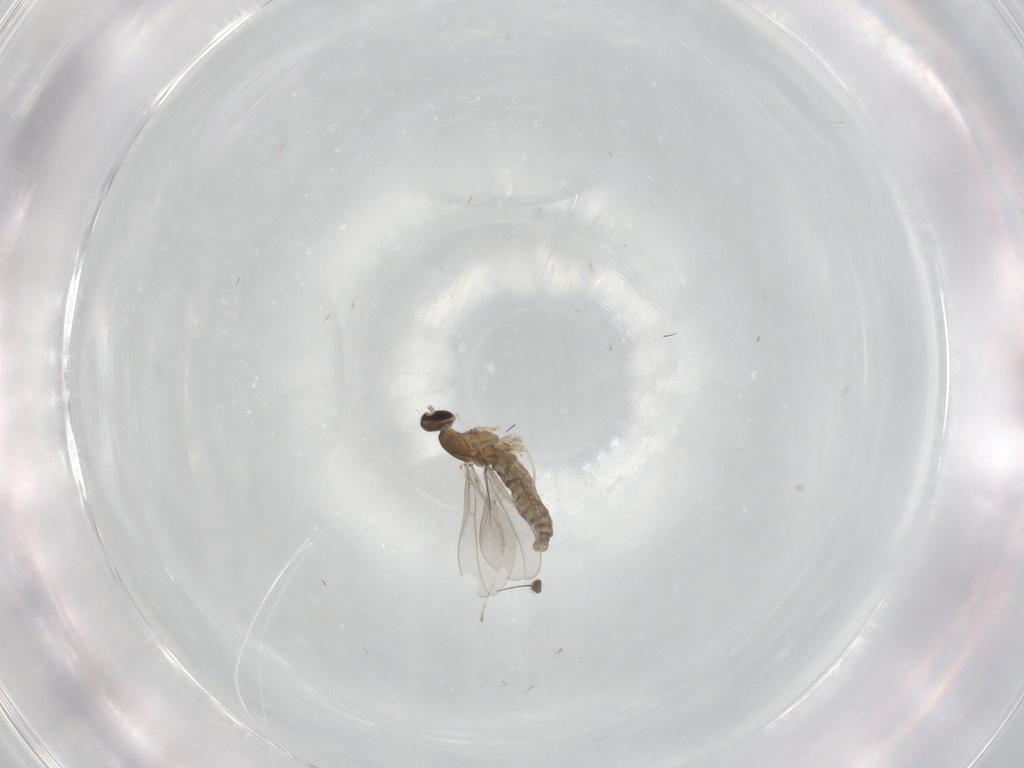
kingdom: Animalia
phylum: Arthropoda
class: Insecta
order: Diptera
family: Cecidomyiidae
